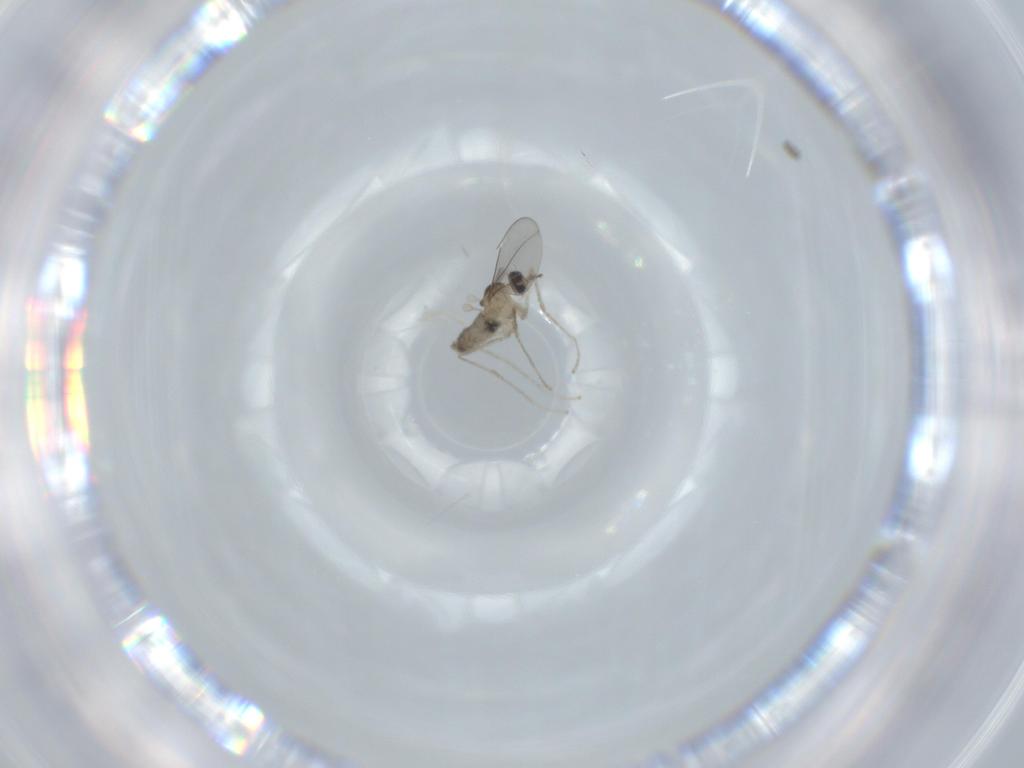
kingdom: Animalia
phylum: Arthropoda
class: Insecta
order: Diptera
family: Cecidomyiidae
